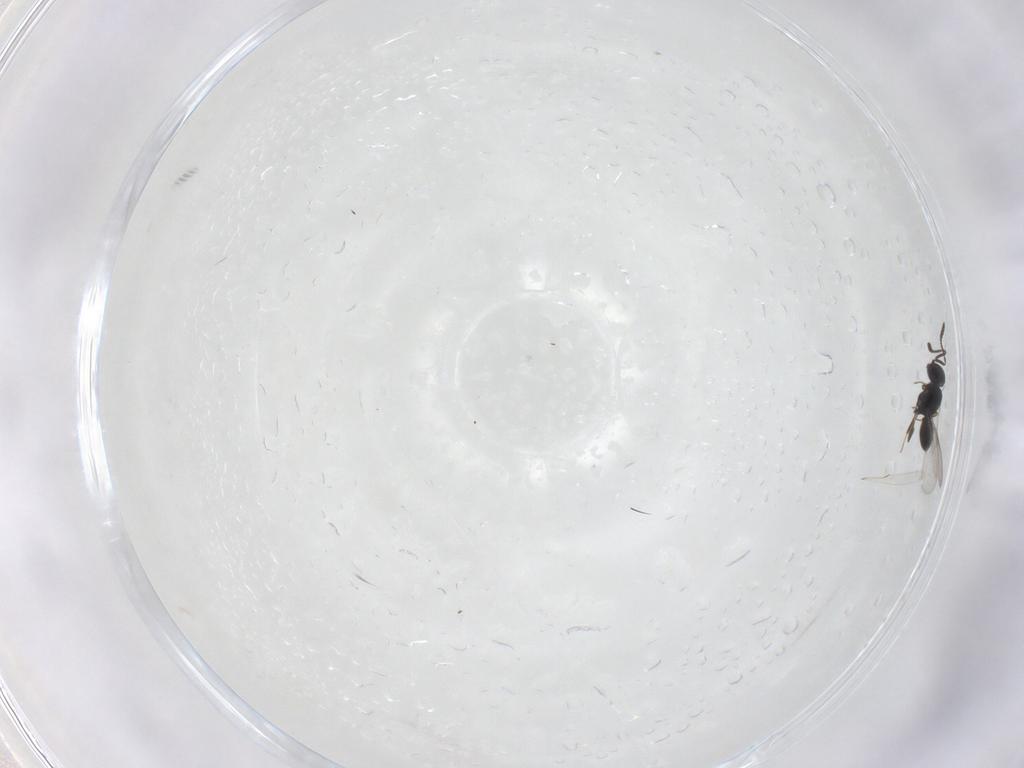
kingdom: Animalia
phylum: Arthropoda
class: Insecta
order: Hymenoptera
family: Scelionidae
